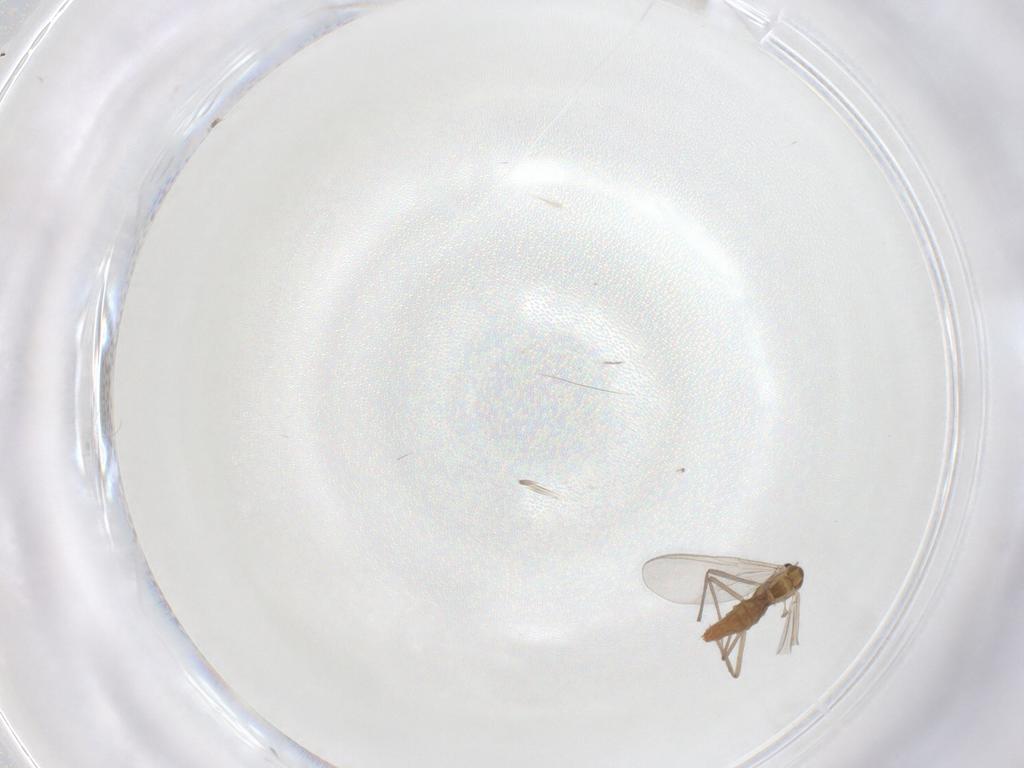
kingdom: Animalia
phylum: Arthropoda
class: Insecta
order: Diptera
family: Chironomidae
